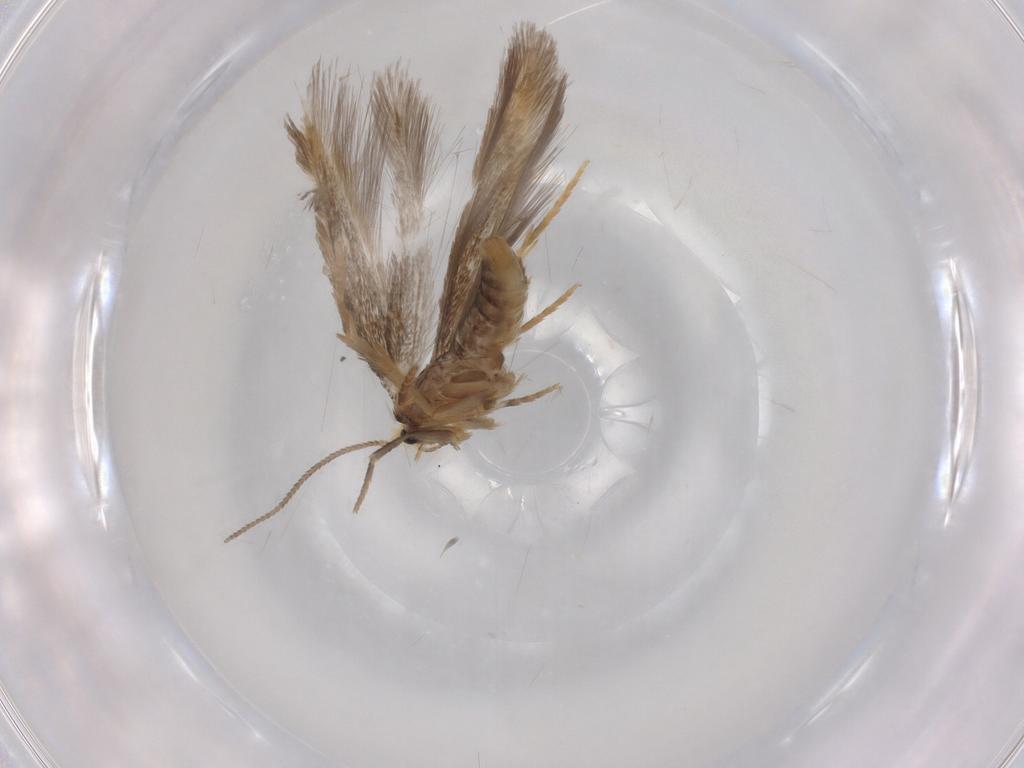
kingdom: Animalia
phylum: Arthropoda
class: Insecta
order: Lepidoptera
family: Nepticulidae
